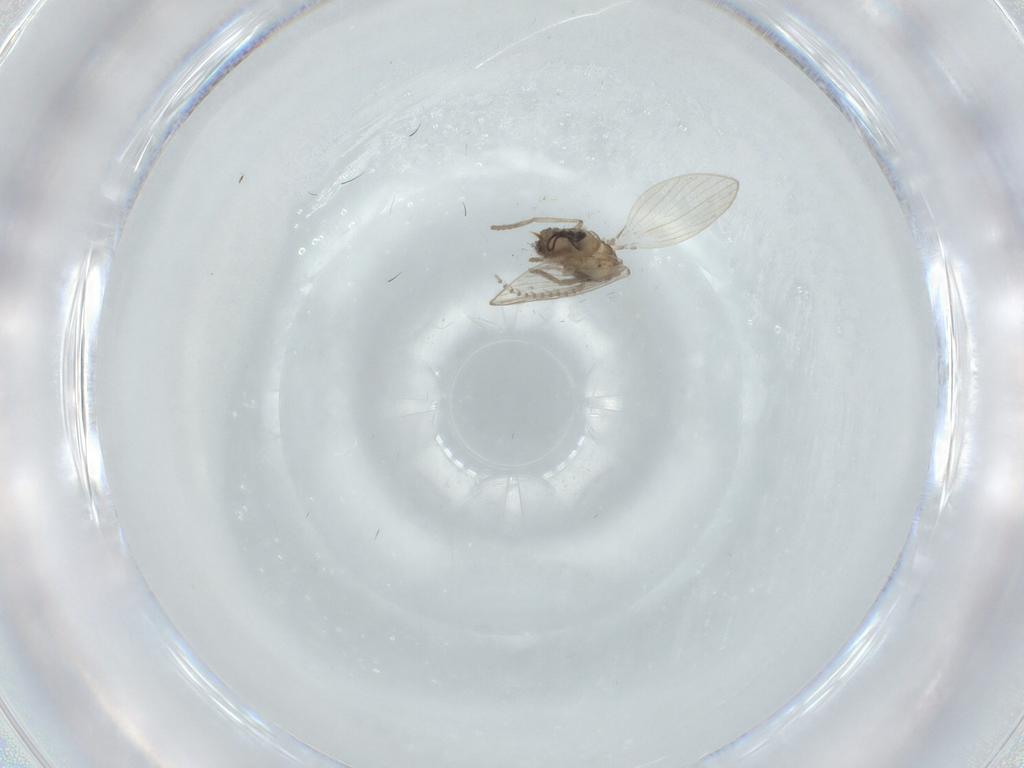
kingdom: Animalia
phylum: Arthropoda
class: Insecta
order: Diptera
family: Psychodidae
